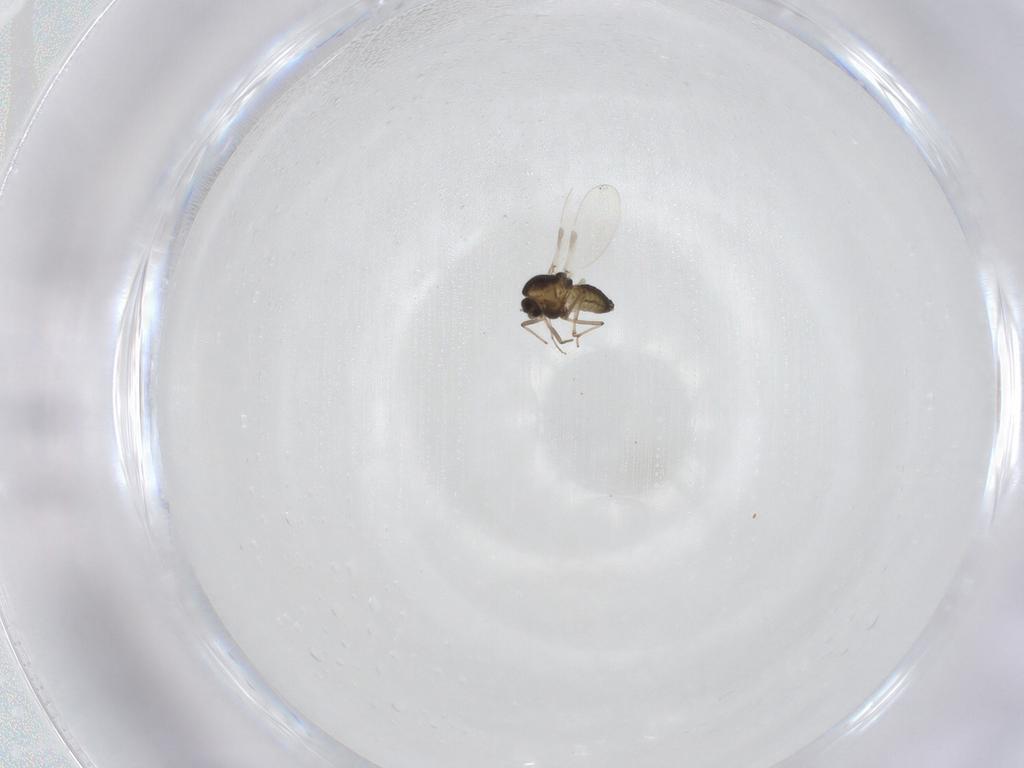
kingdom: Animalia
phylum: Arthropoda
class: Insecta
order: Diptera
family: Chironomidae
